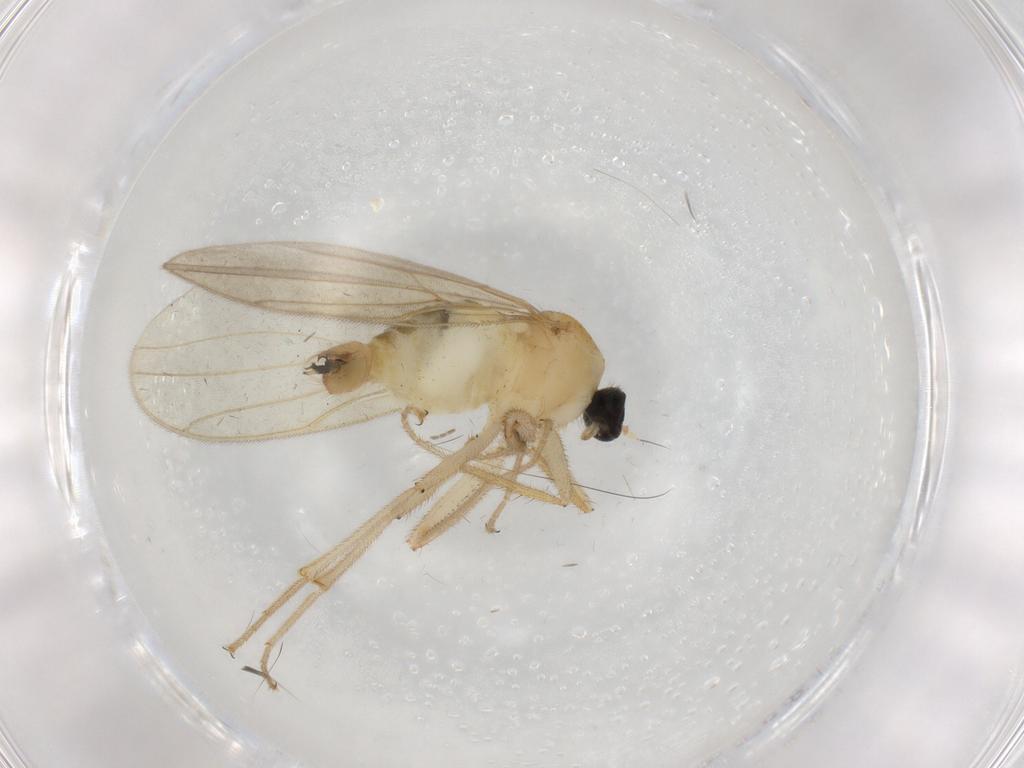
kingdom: Animalia
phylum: Arthropoda
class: Insecta
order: Diptera
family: Hybotidae
